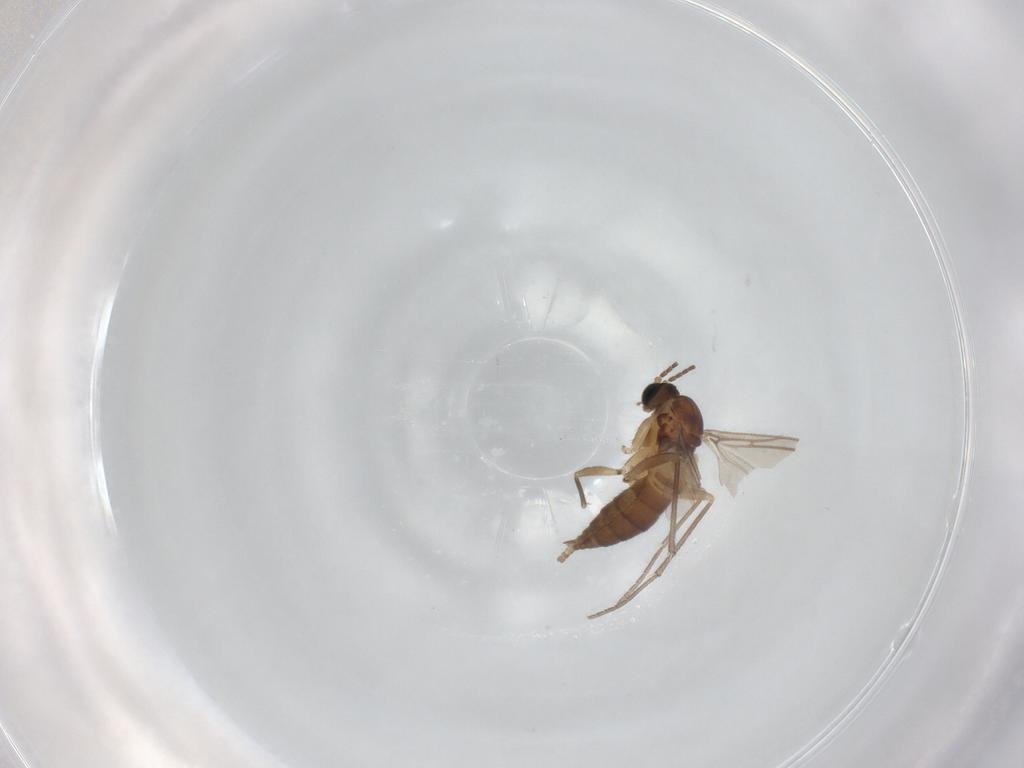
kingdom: Animalia
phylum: Arthropoda
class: Insecta
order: Diptera
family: Sciaridae
